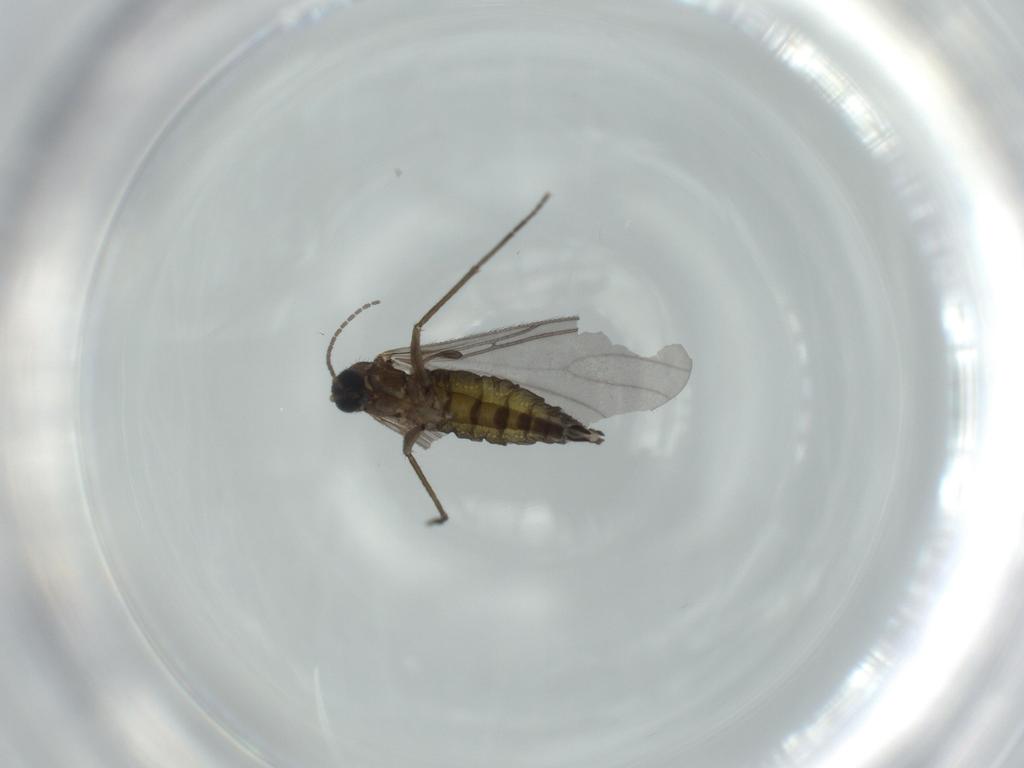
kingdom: Animalia
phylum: Arthropoda
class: Insecta
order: Diptera
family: Sciaridae
